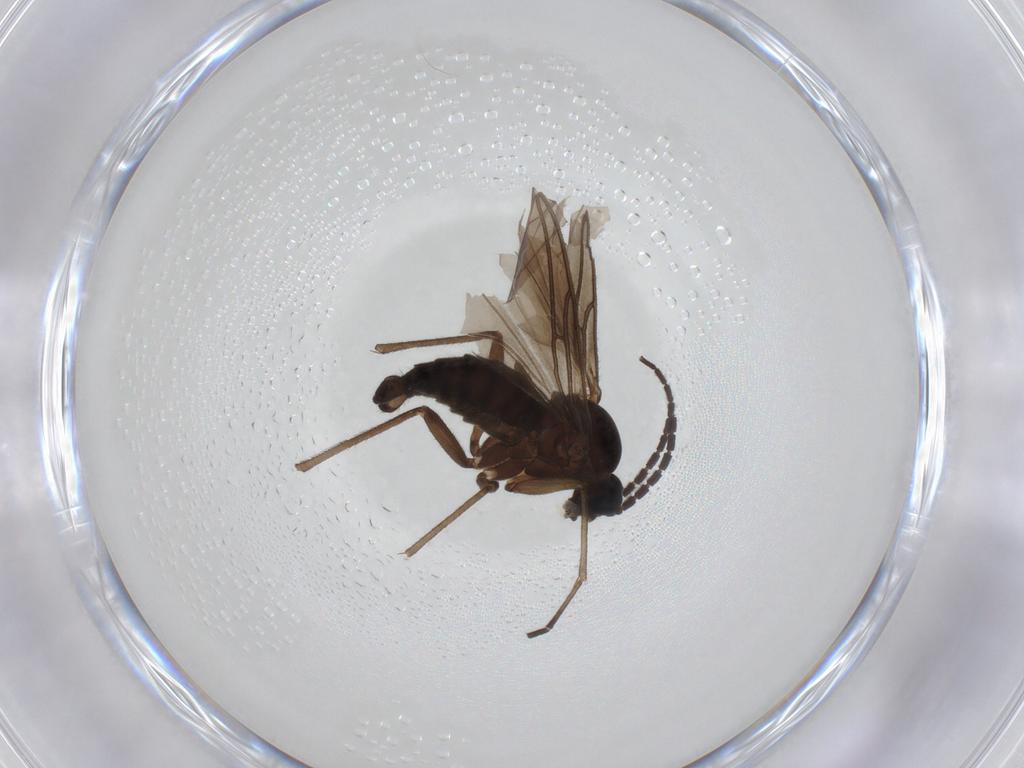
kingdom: Animalia
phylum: Arthropoda
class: Insecta
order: Diptera
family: Sciaridae
